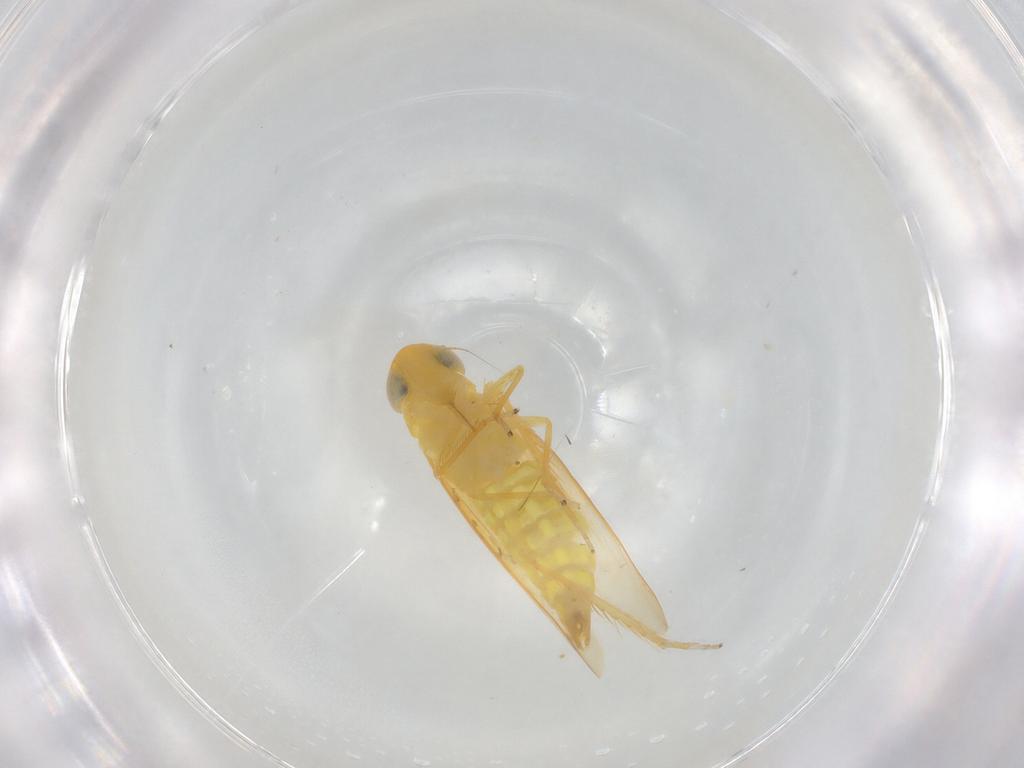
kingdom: Animalia
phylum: Arthropoda
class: Insecta
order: Hemiptera
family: Cicadellidae
